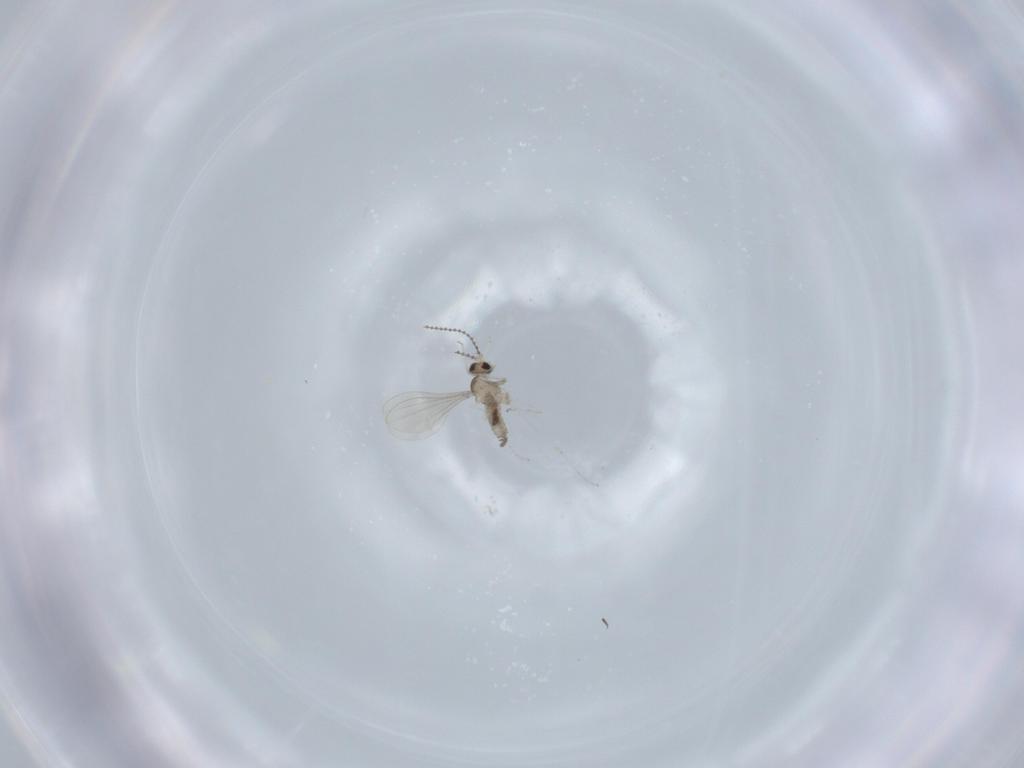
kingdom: Animalia
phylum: Arthropoda
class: Insecta
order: Diptera
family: Cecidomyiidae
